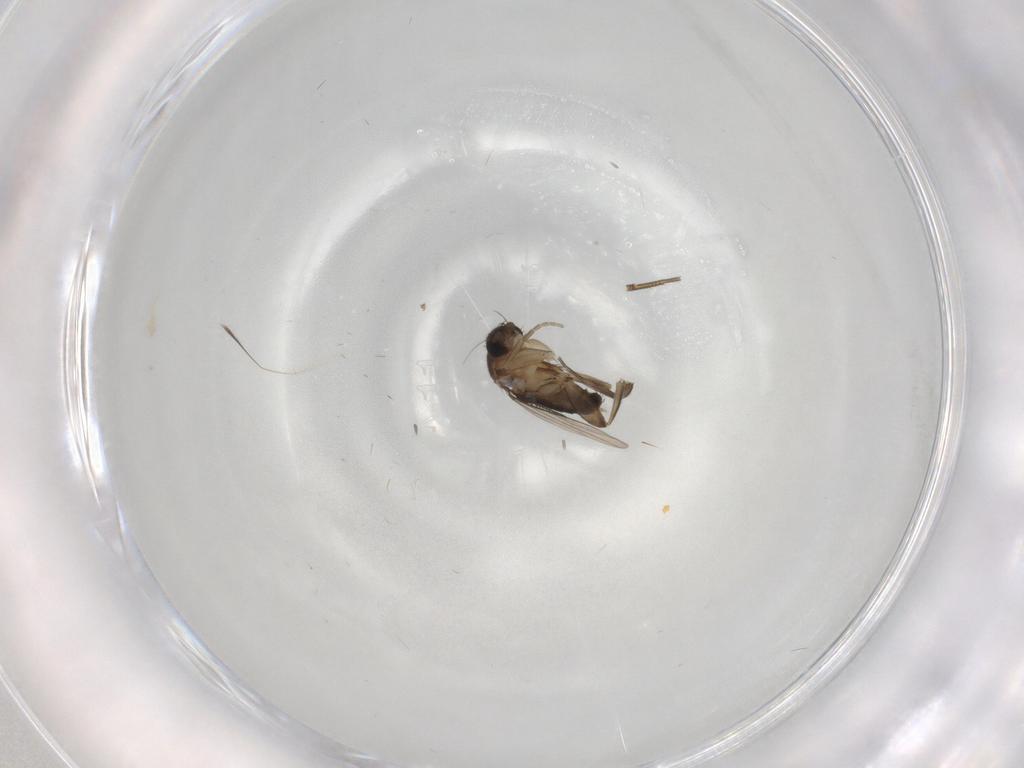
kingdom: Animalia
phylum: Arthropoda
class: Insecta
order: Diptera
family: Phoridae
